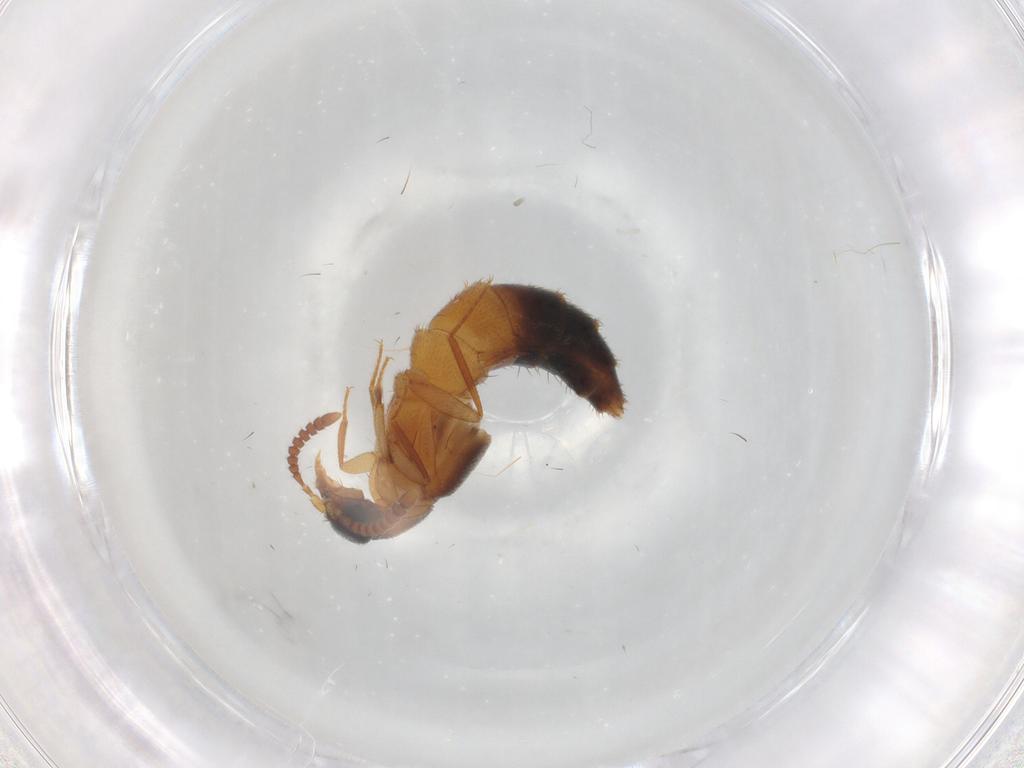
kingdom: Animalia
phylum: Arthropoda
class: Insecta
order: Coleoptera
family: Staphylinidae
